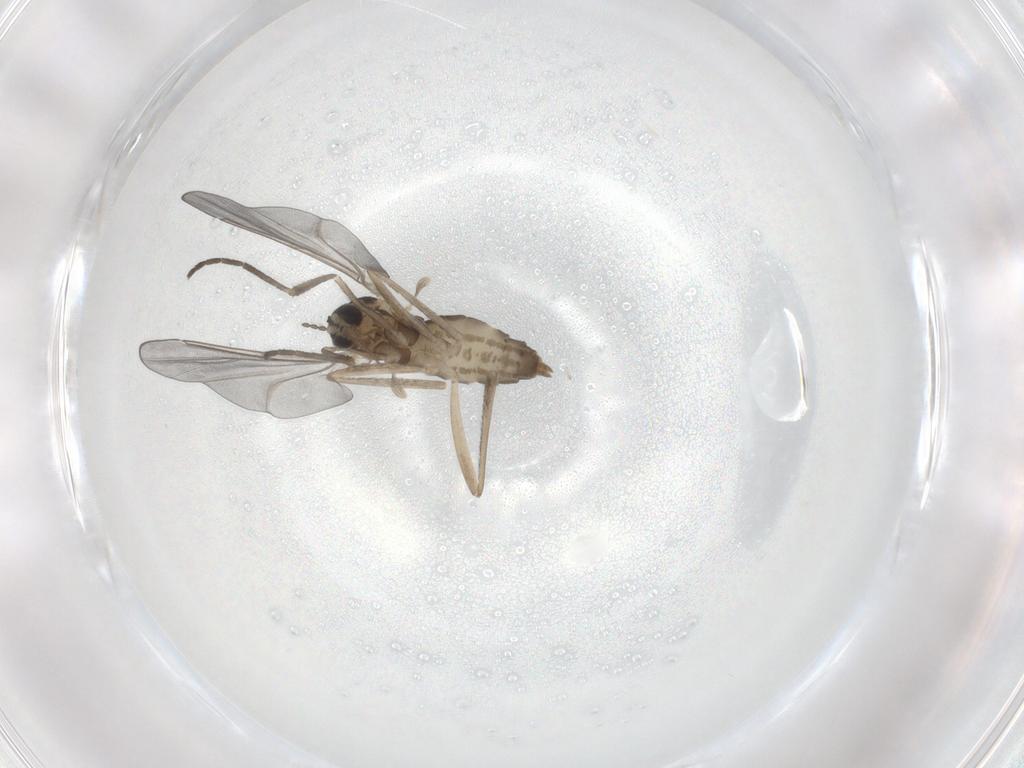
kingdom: Animalia
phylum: Arthropoda
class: Insecta
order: Diptera
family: Cecidomyiidae
